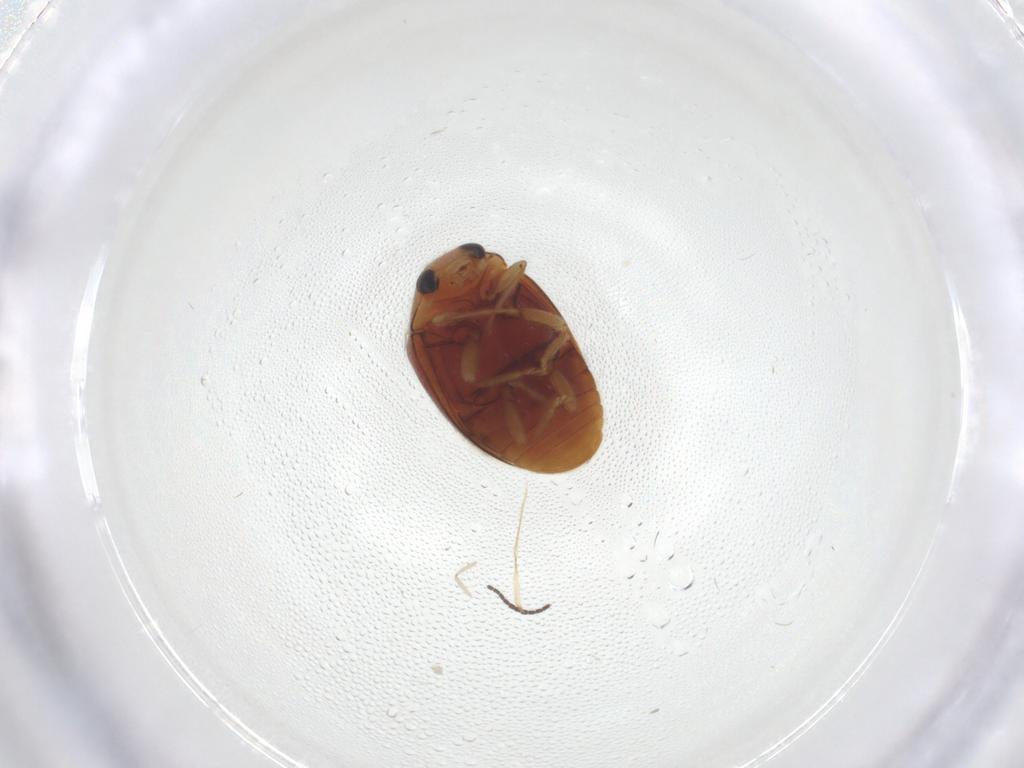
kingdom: Animalia
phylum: Arthropoda
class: Insecta
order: Coleoptera
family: Coccinellidae
